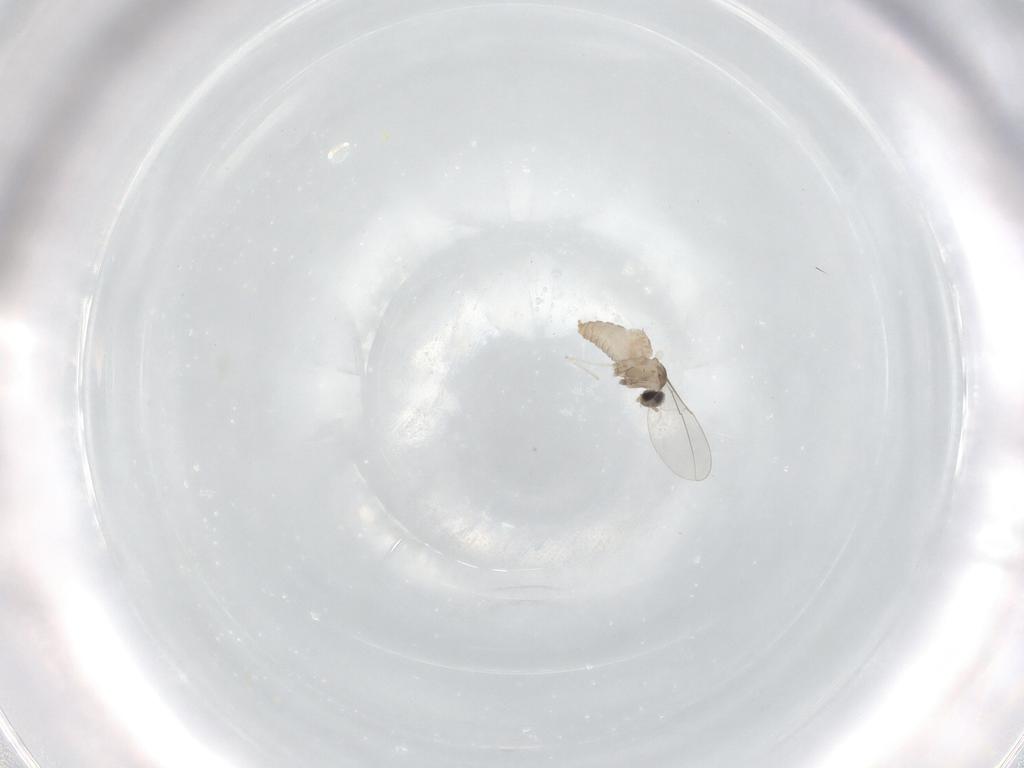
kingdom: Animalia
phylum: Arthropoda
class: Insecta
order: Diptera
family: Cecidomyiidae
